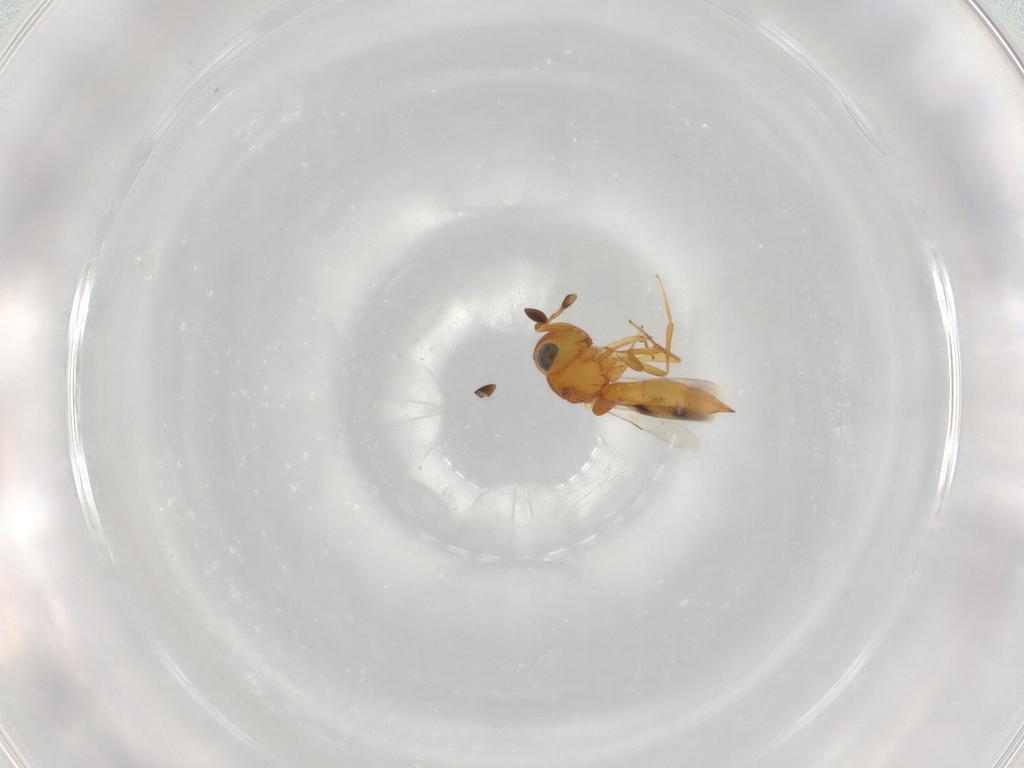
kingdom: Animalia
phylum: Arthropoda
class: Insecta
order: Hymenoptera
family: Scelionidae
